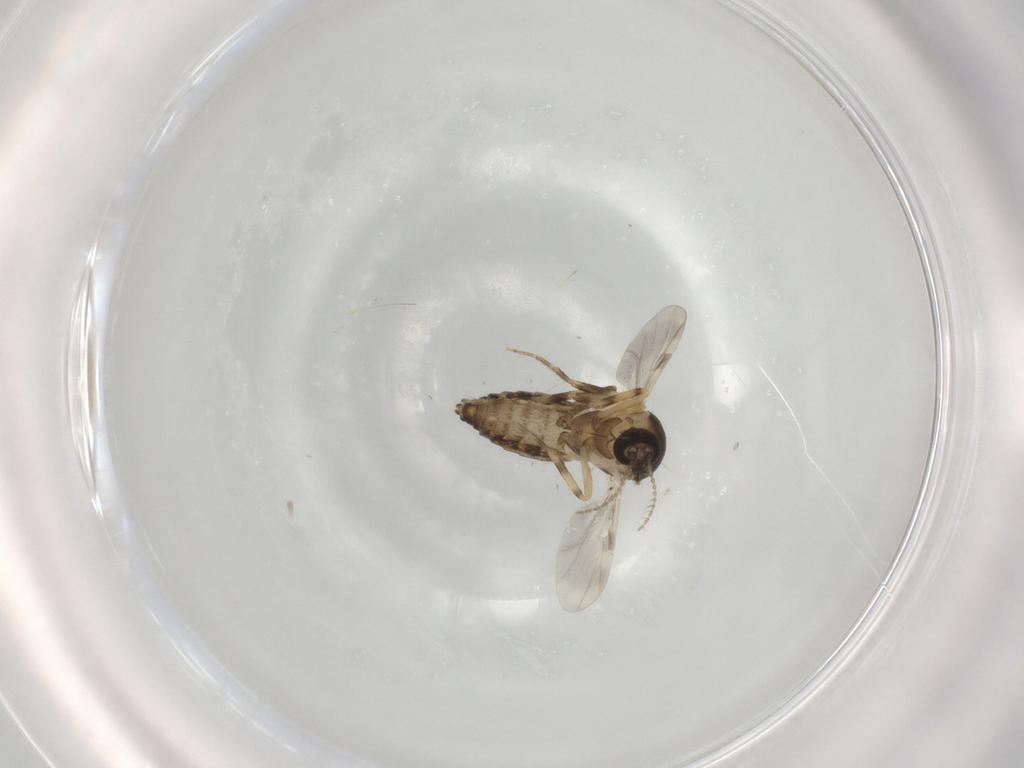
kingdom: Animalia
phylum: Arthropoda
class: Insecta
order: Diptera
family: Ceratopogonidae
